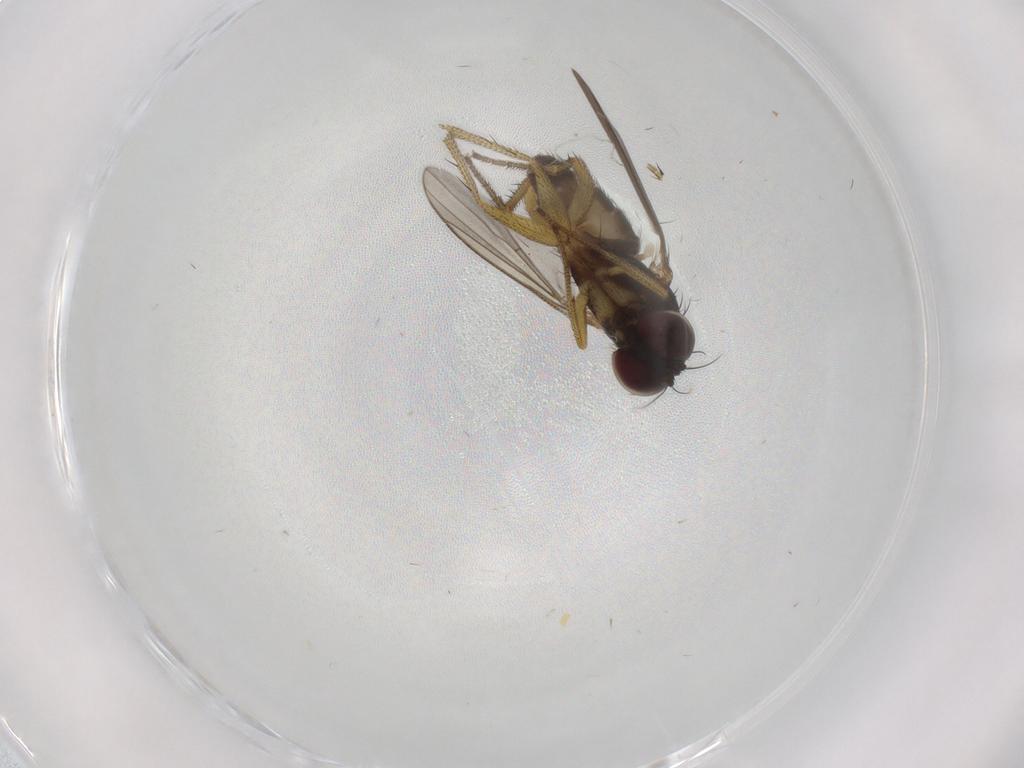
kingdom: Animalia
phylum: Arthropoda
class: Insecta
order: Diptera
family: Dolichopodidae
